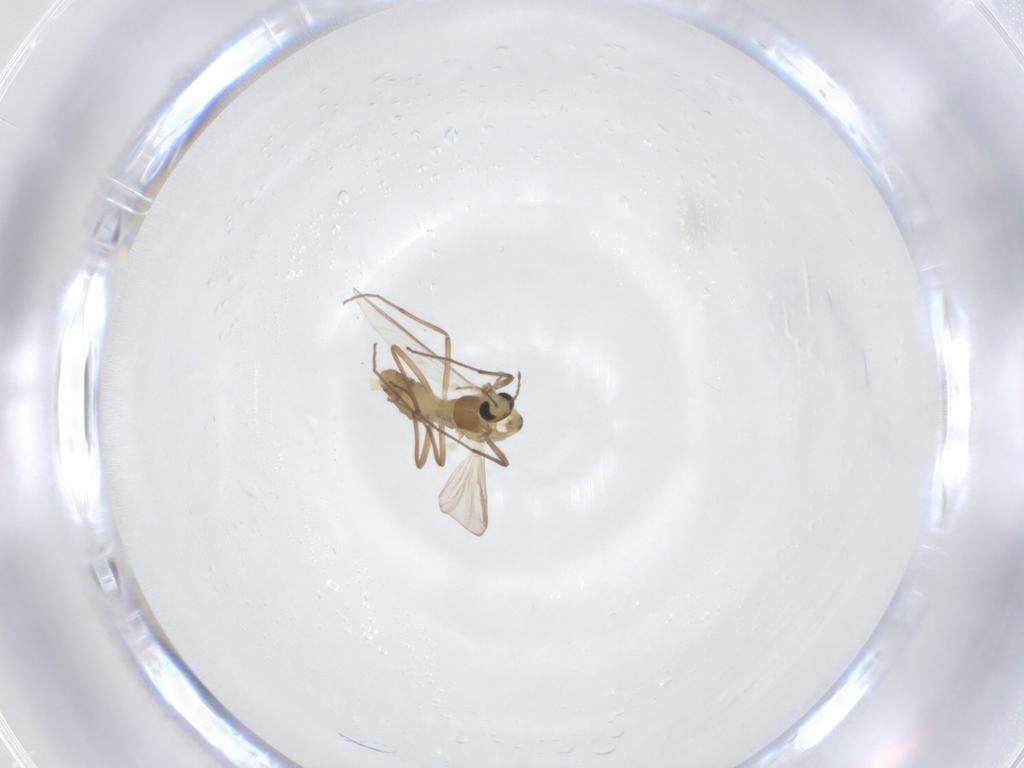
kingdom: Animalia
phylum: Arthropoda
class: Insecta
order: Diptera
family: Chironomidae
